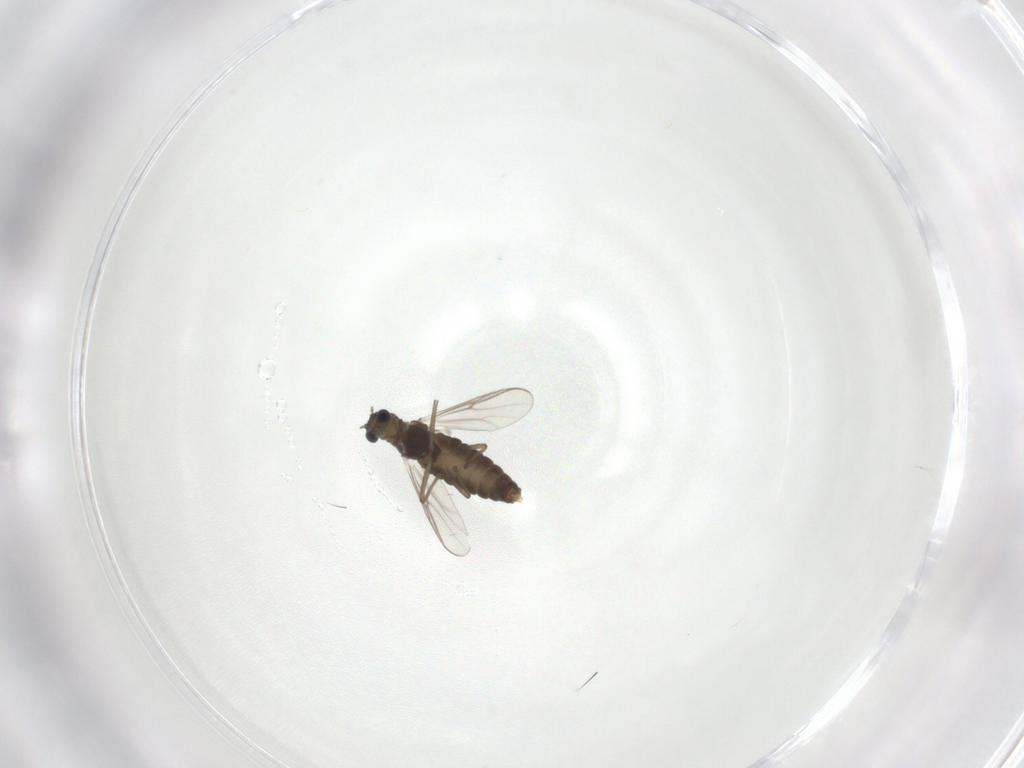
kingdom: Animalia
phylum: Arthropoda
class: Insecta
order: Diptera
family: Chironomidae
